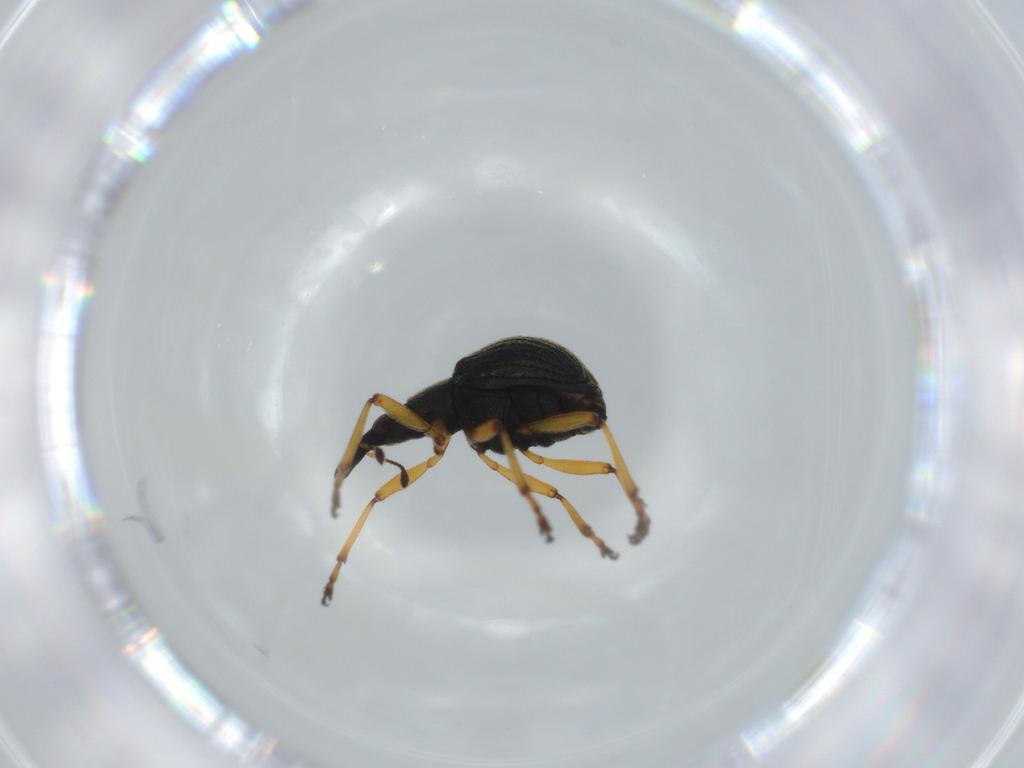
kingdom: Animalia
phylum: Arthropoda
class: Insecta
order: Coleoptera
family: Brentidae
